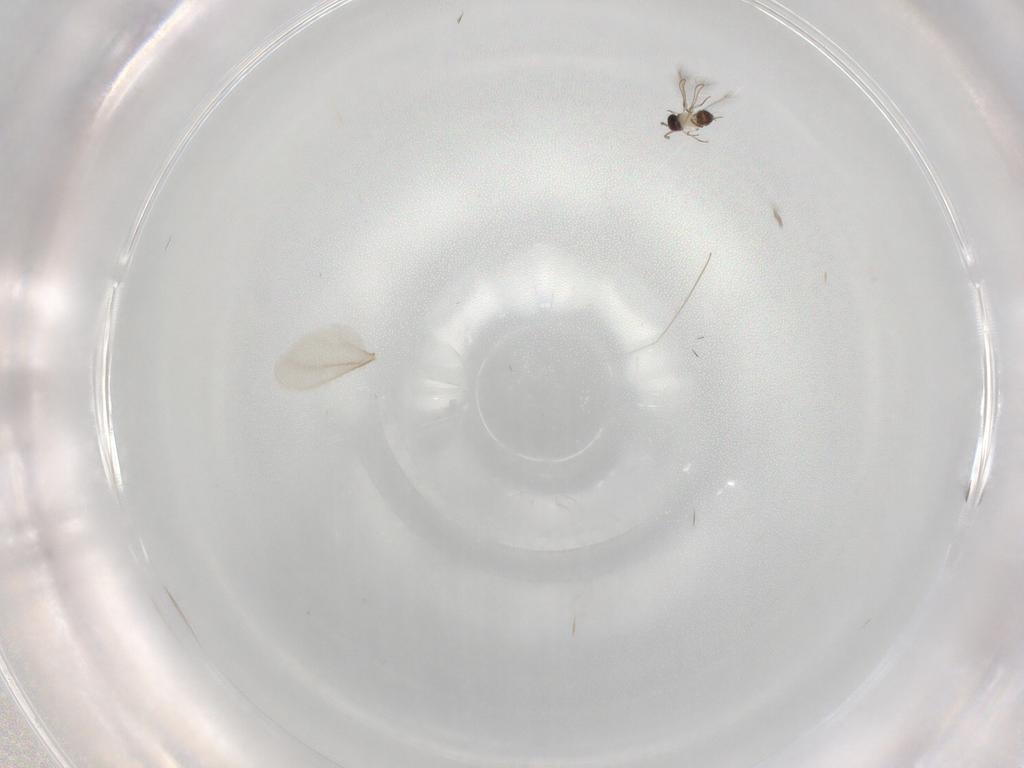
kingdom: Animalia
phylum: Arthropoda
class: Insecta
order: Hymenoptera
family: Mymaridae
